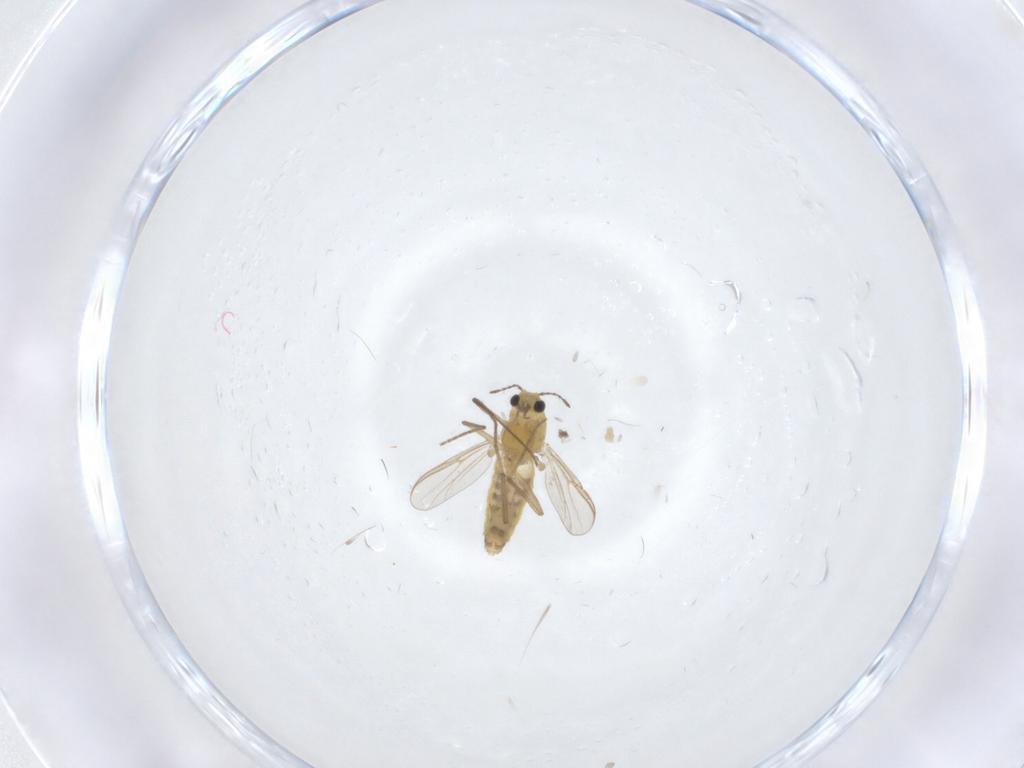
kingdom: Animalia
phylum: Arthropoda
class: Insecta
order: Diptera
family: Chironomidae
